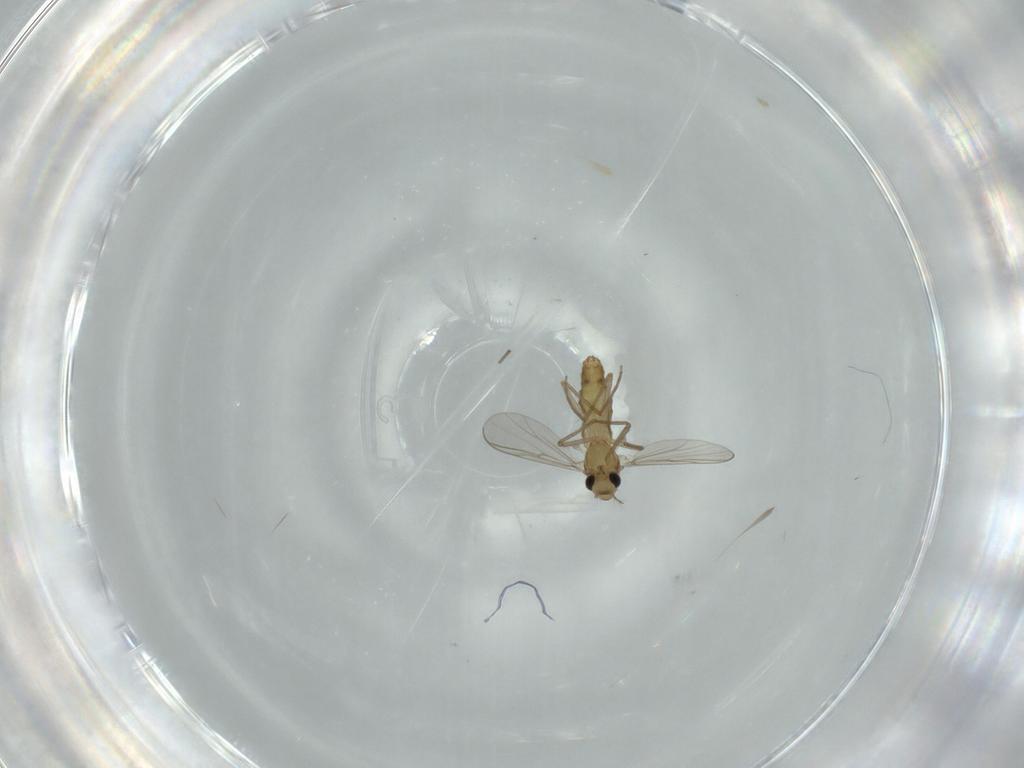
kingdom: Animalia
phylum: Arthropoda
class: Insecta
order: Diptera
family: Chironomidae
